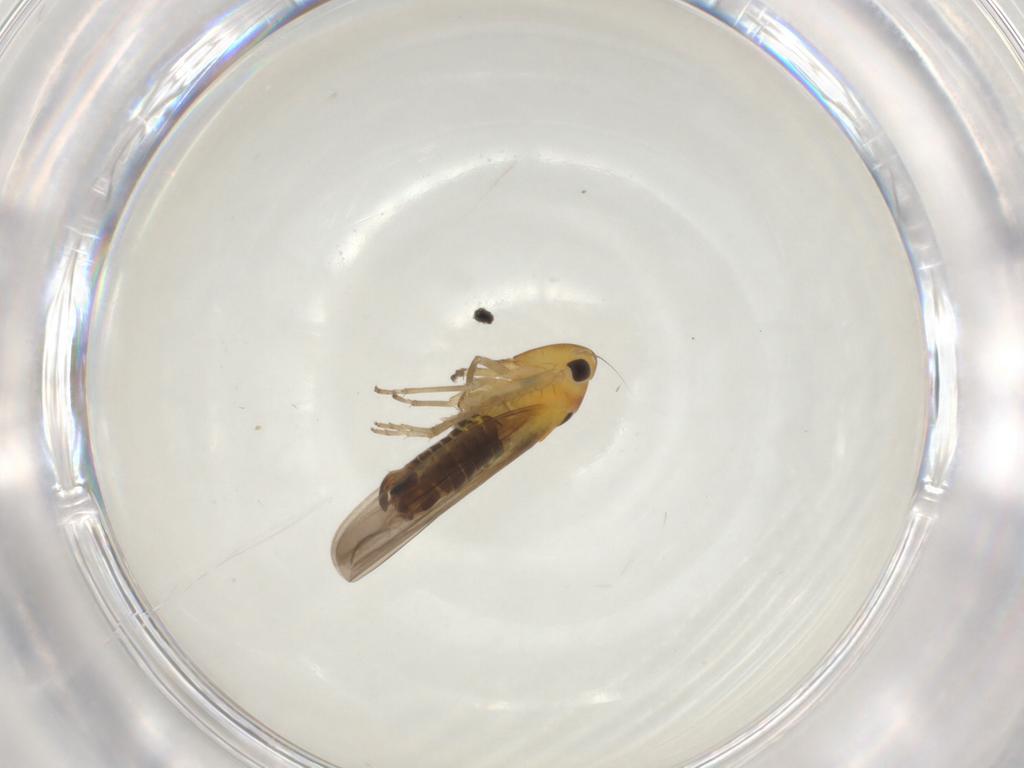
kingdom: Animalia
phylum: Arthropoda
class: Insecta
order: Hemiptera
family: Cicadellidae
